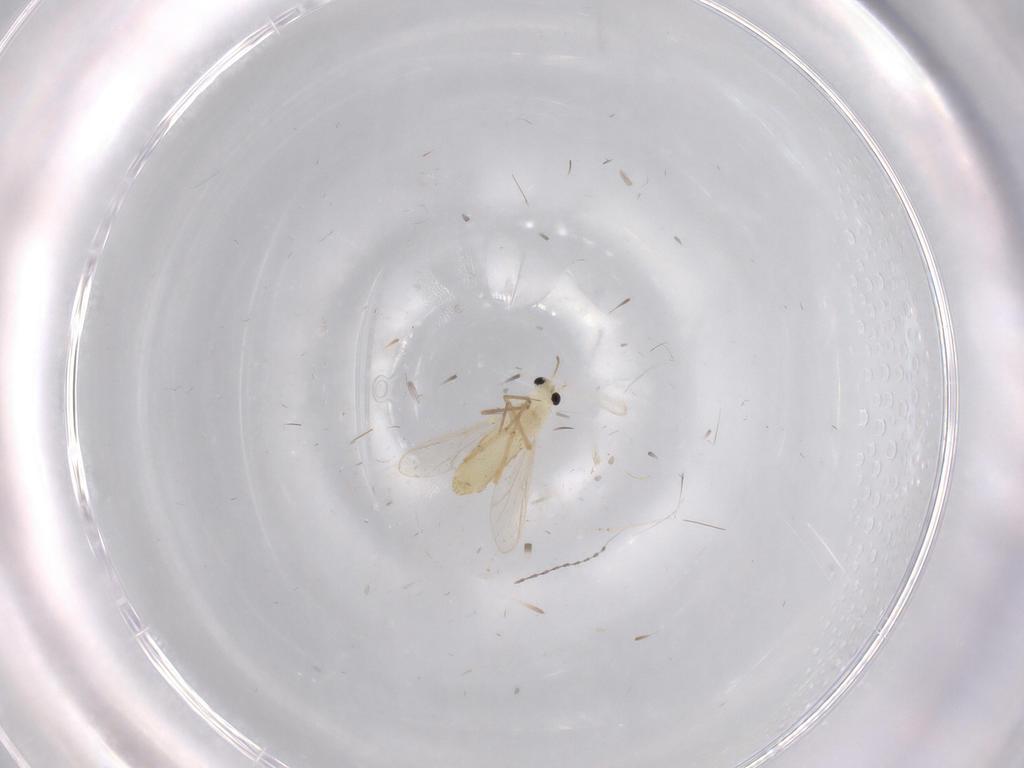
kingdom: Animalia
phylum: Arthropoda
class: Insecta
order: Diptera
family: Chironomidae
